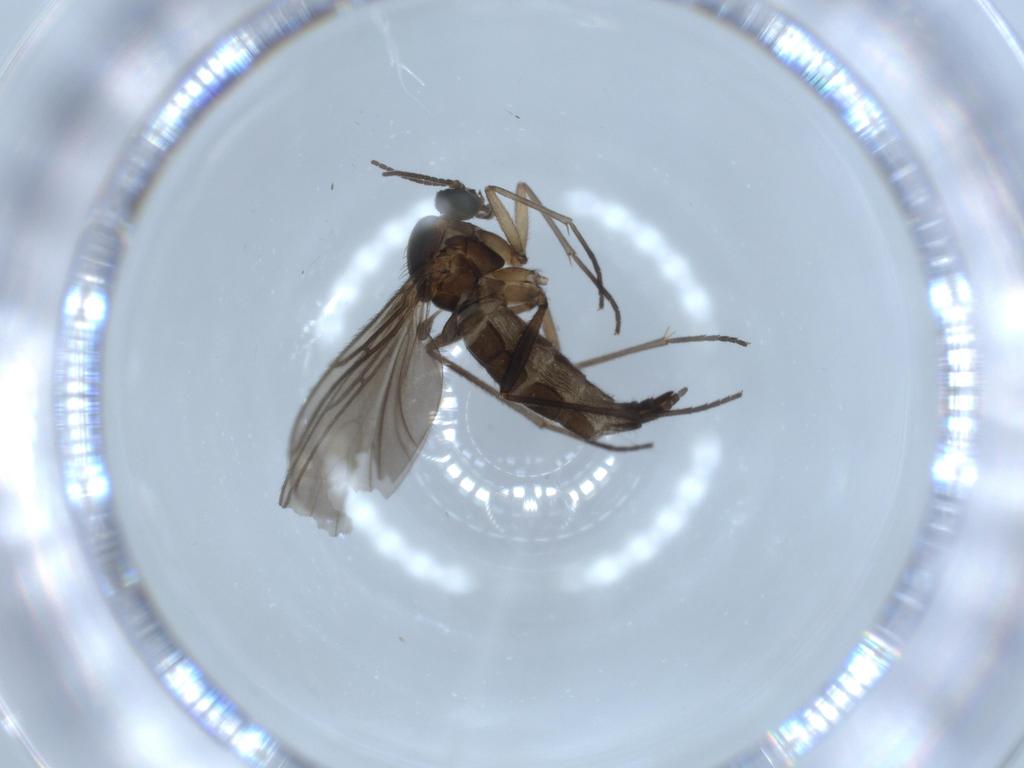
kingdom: Animalia
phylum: Arthropoda
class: Insecta
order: Diptera
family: Sciaridae
